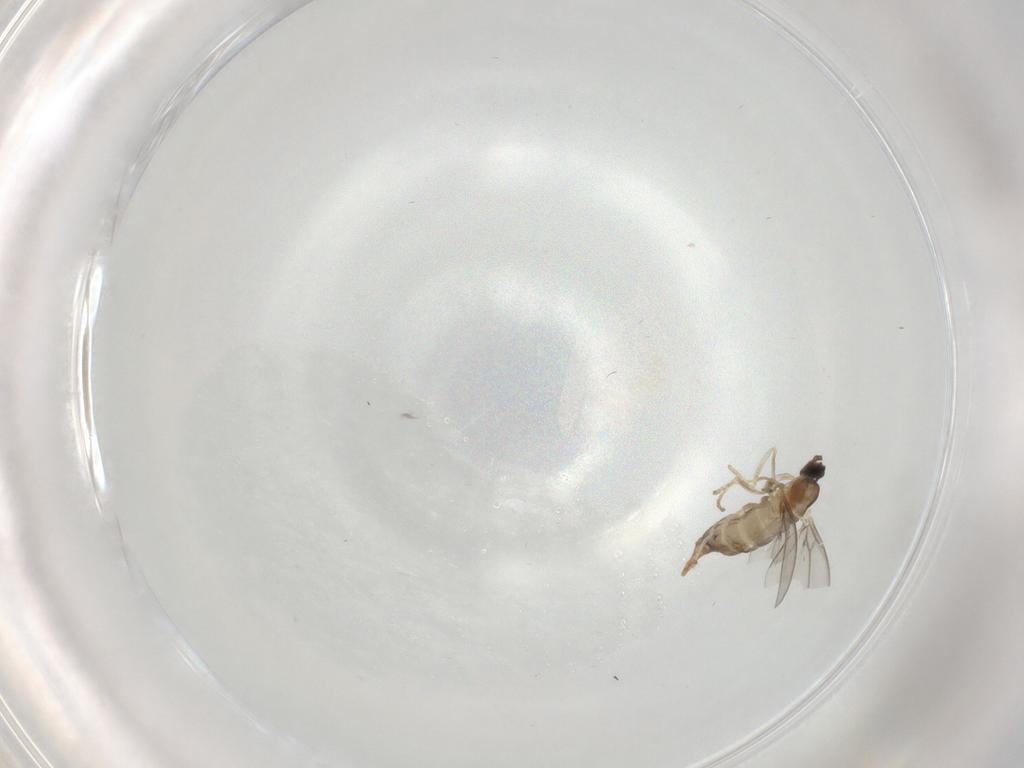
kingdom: Animalia
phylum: Arthropoda
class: Insecta
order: Diptera
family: Cecidomyiidae
